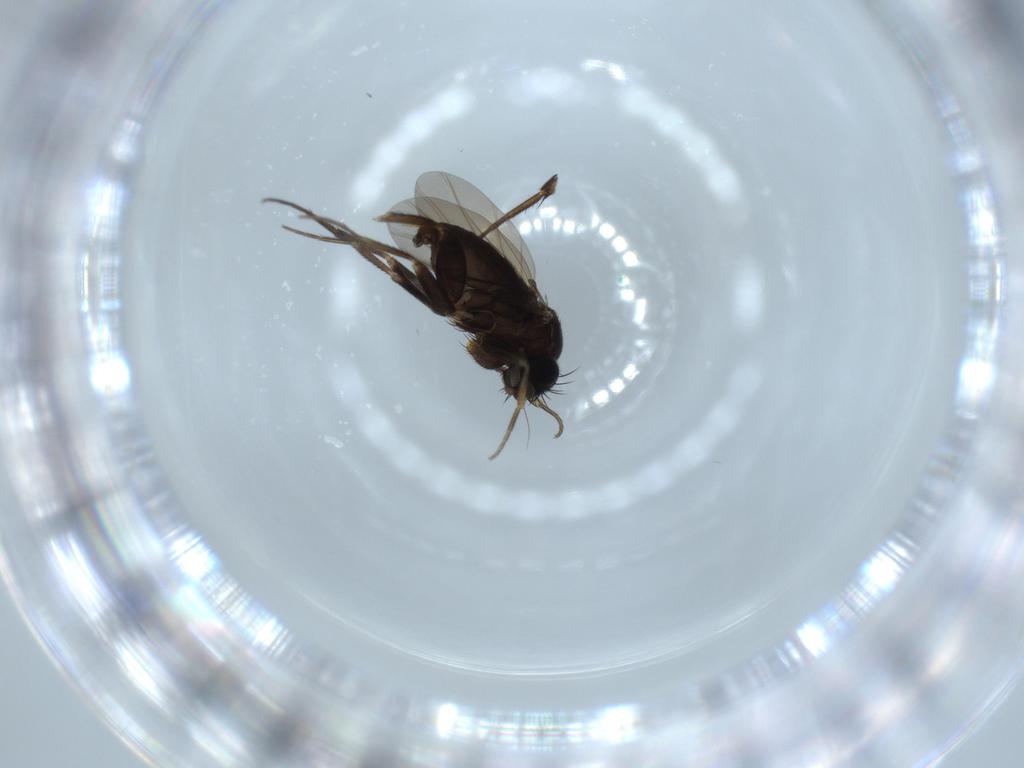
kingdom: Animalia
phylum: Arthropoda
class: Insecta
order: Diptera
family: Phoridae
